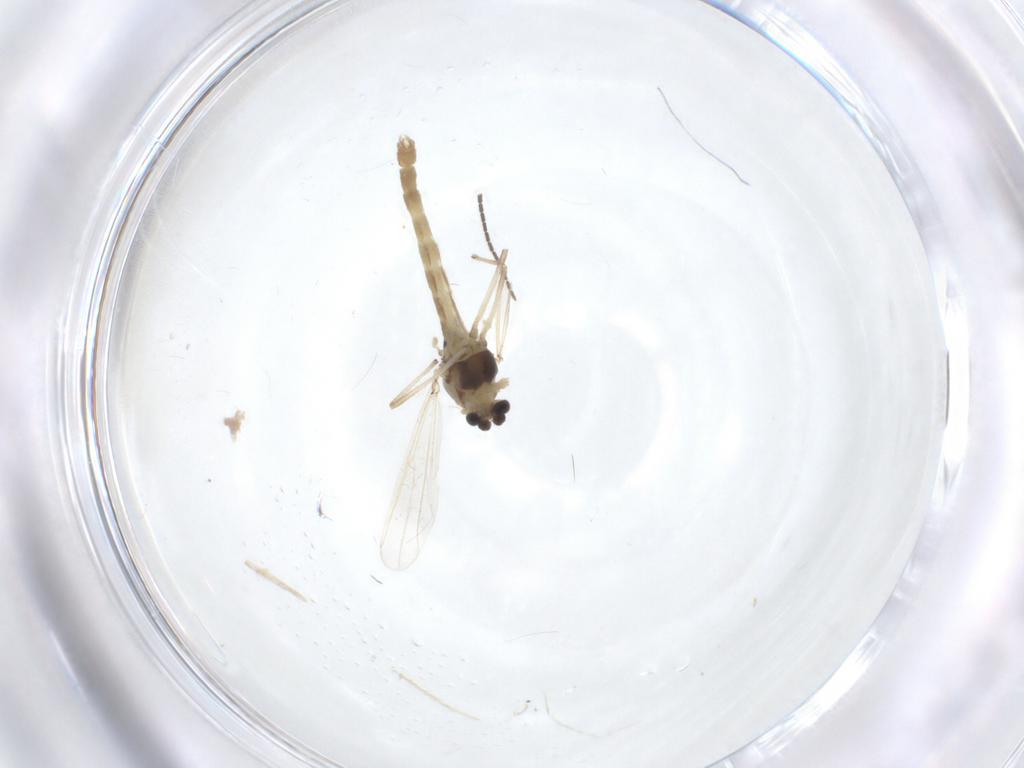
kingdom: Animalia
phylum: Arthropoda
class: Insecta
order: Diptera
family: Chironomidae
